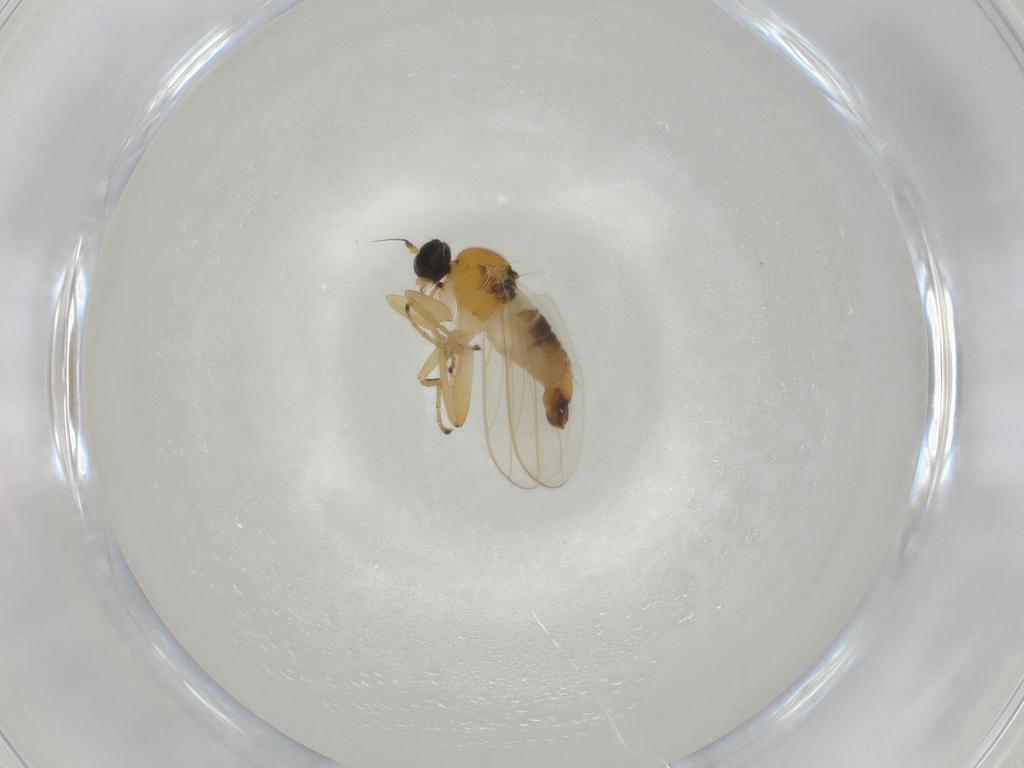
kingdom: Animalia
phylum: Arthropoda
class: Insecta
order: Diptera
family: Hybotidae
